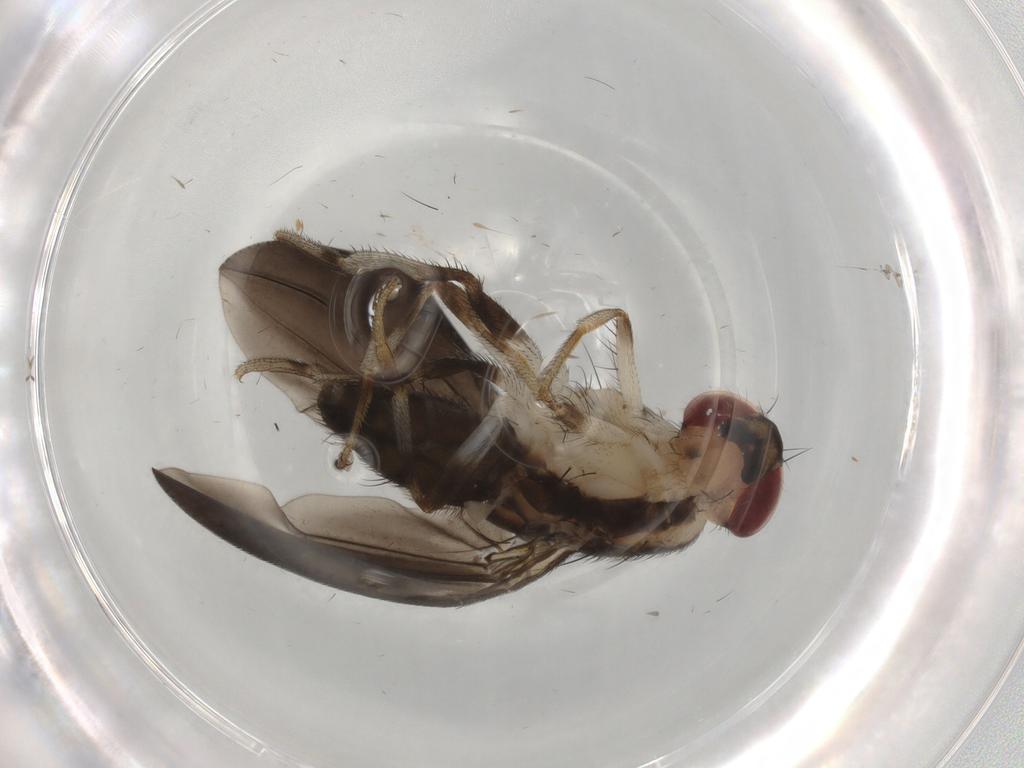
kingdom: Animalia
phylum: Arthropoda
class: Insecta
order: Diptera
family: Drosophilidae
